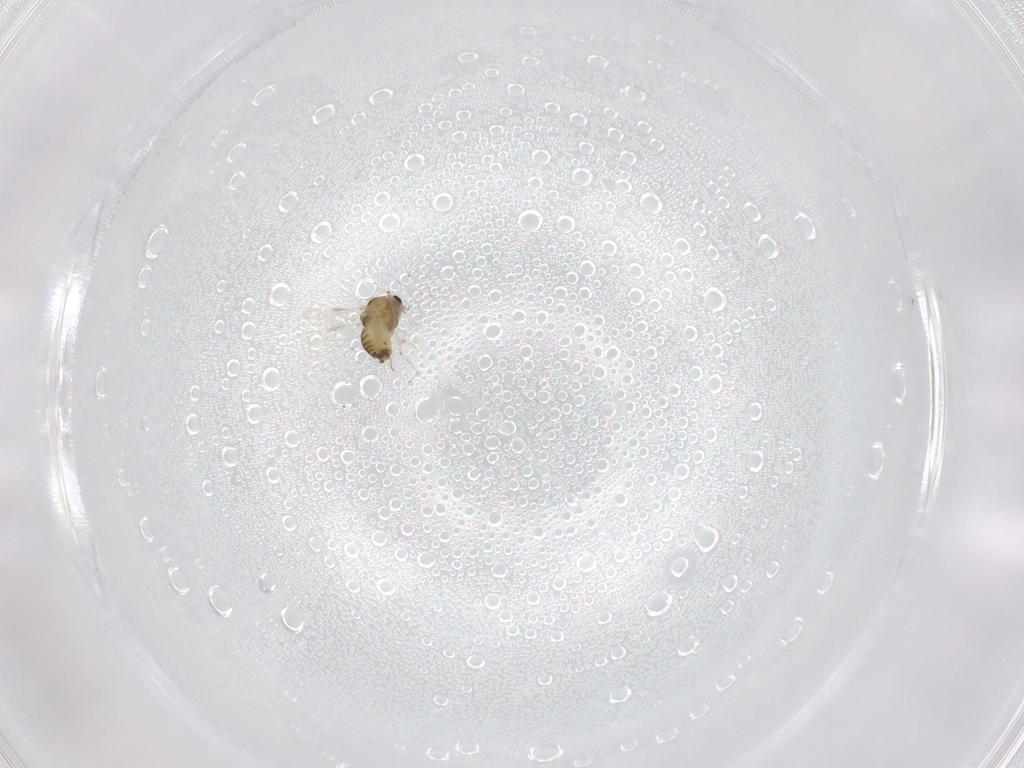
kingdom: Animalia
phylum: Arthropoda
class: Insecta
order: Diptera
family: Chironomidae
